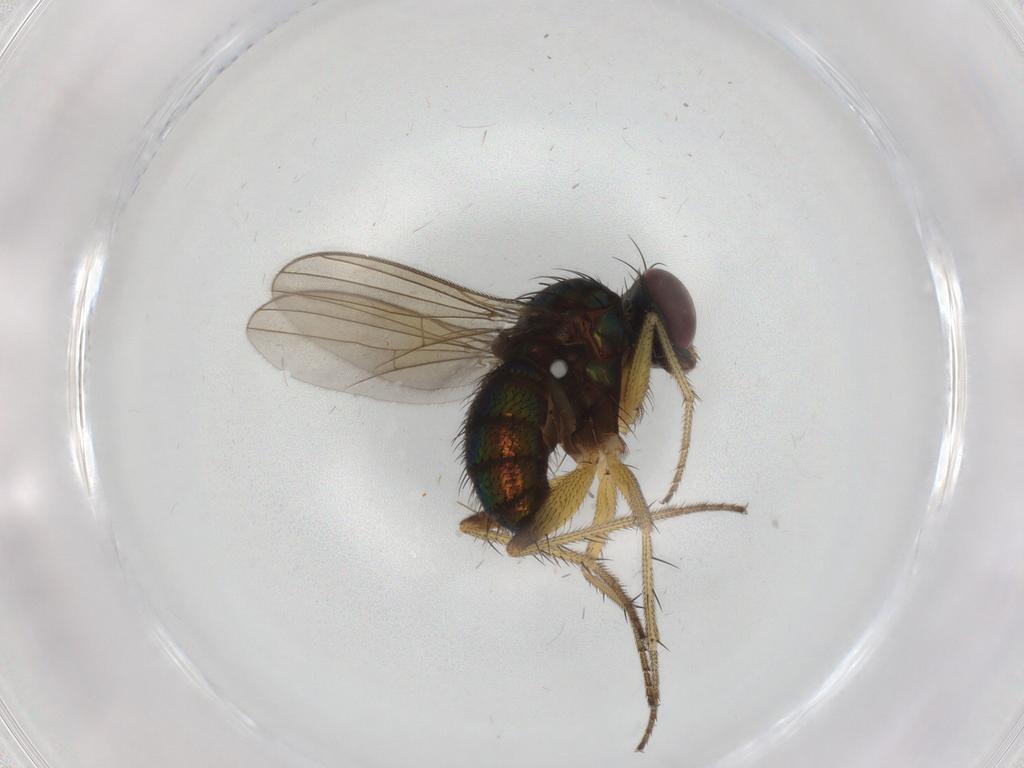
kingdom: Animalia
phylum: Arthropoda
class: Insecta
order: Diptera
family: Dolichopodidae
